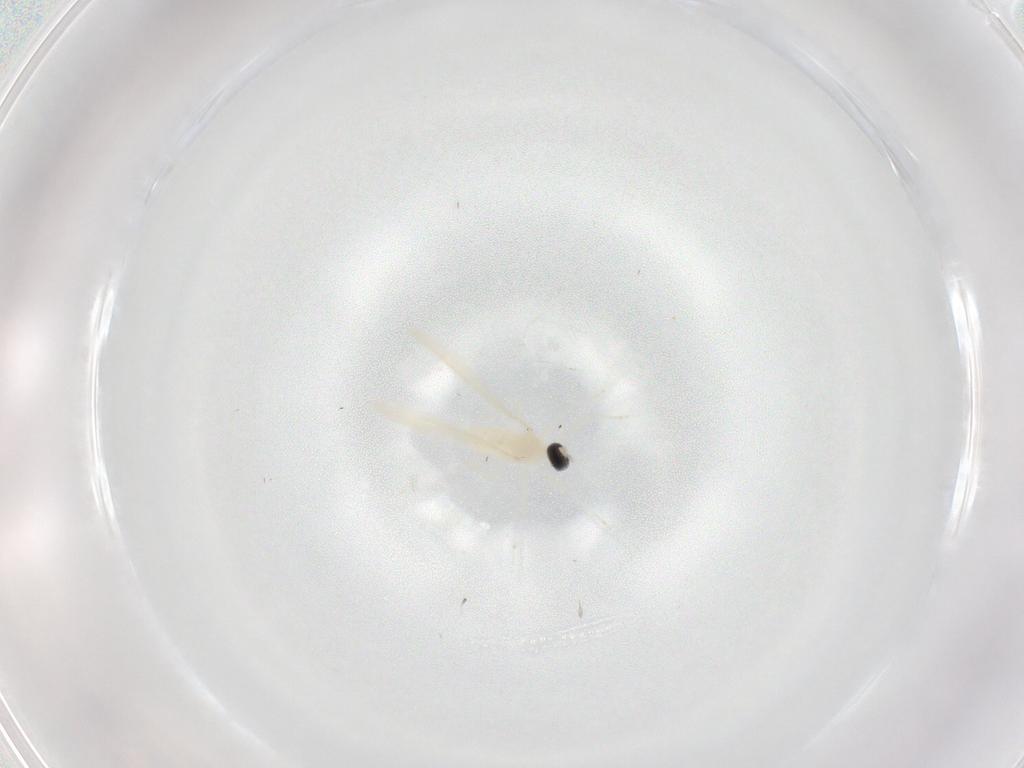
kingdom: Animalia
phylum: Arthropoda
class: Insecta
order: Diptera
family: Cecidomyiidae
